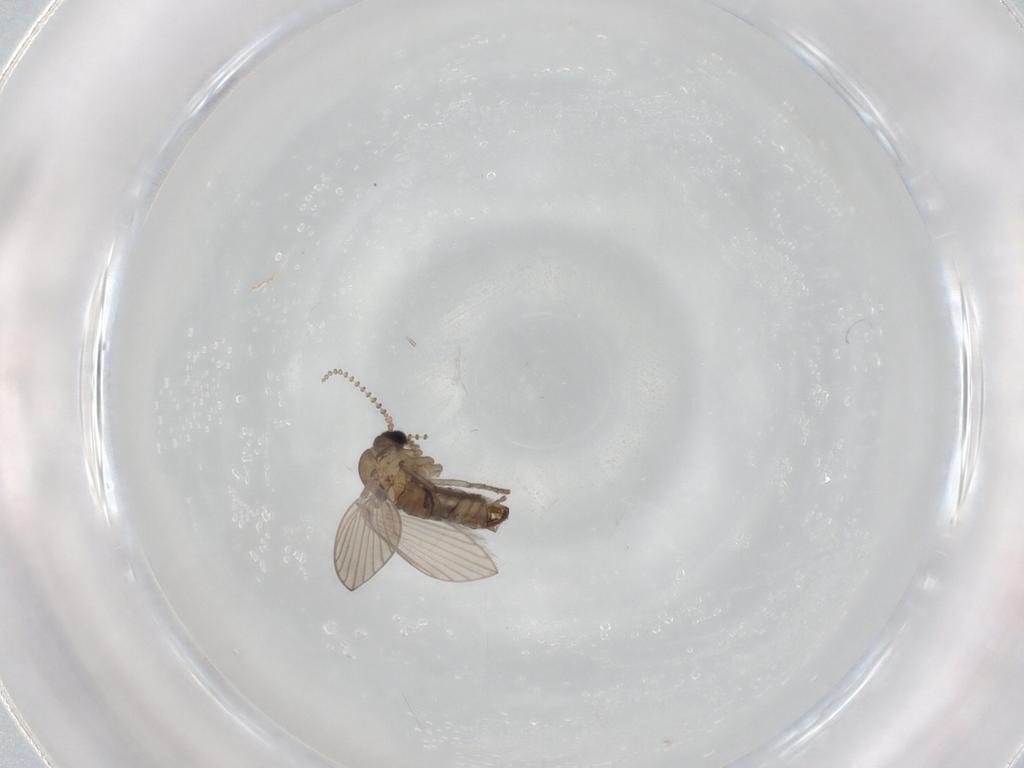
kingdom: Animalia
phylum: Arthropoda
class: Insecta
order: Diptera
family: Psychodidae
